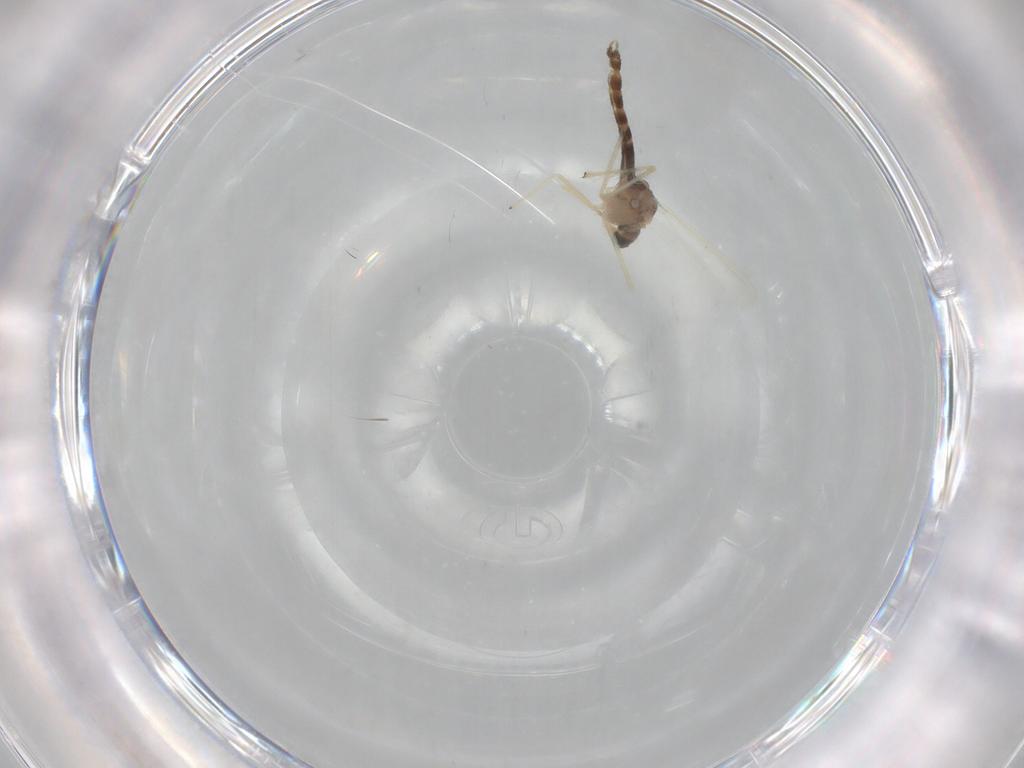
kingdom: Animalia
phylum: Arthropoda
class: Insecta
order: Diptera
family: Chironomidae
